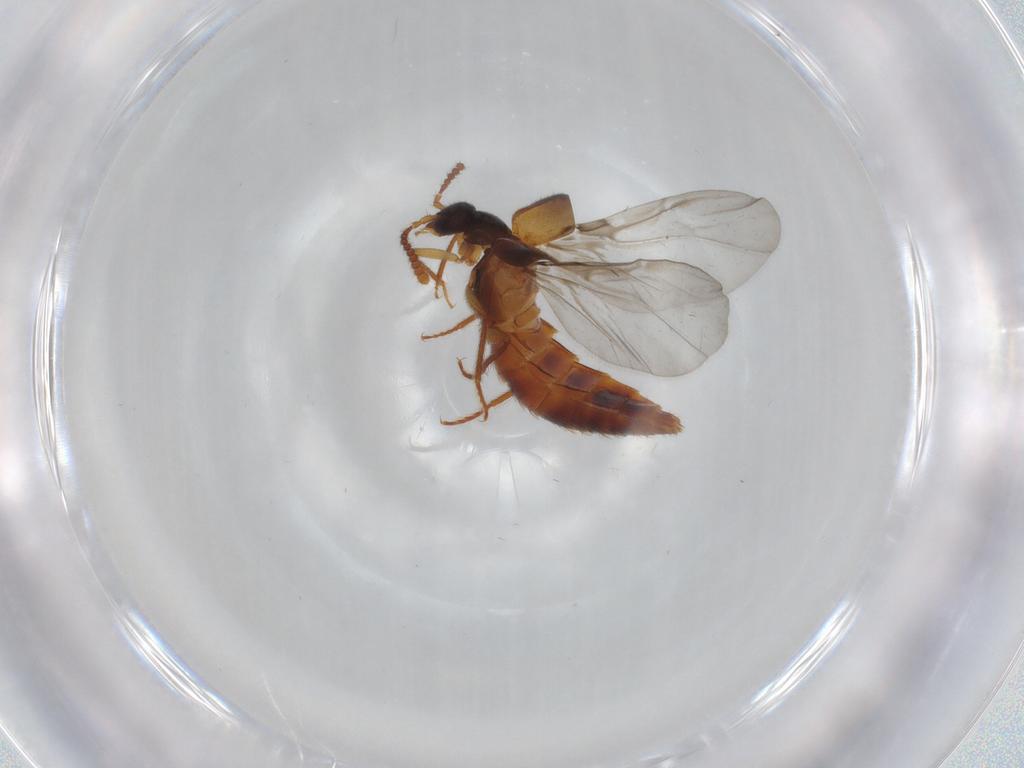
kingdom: Animalia
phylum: Arthropoda
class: Insecta
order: Coleoptera
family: Staphylinidae
